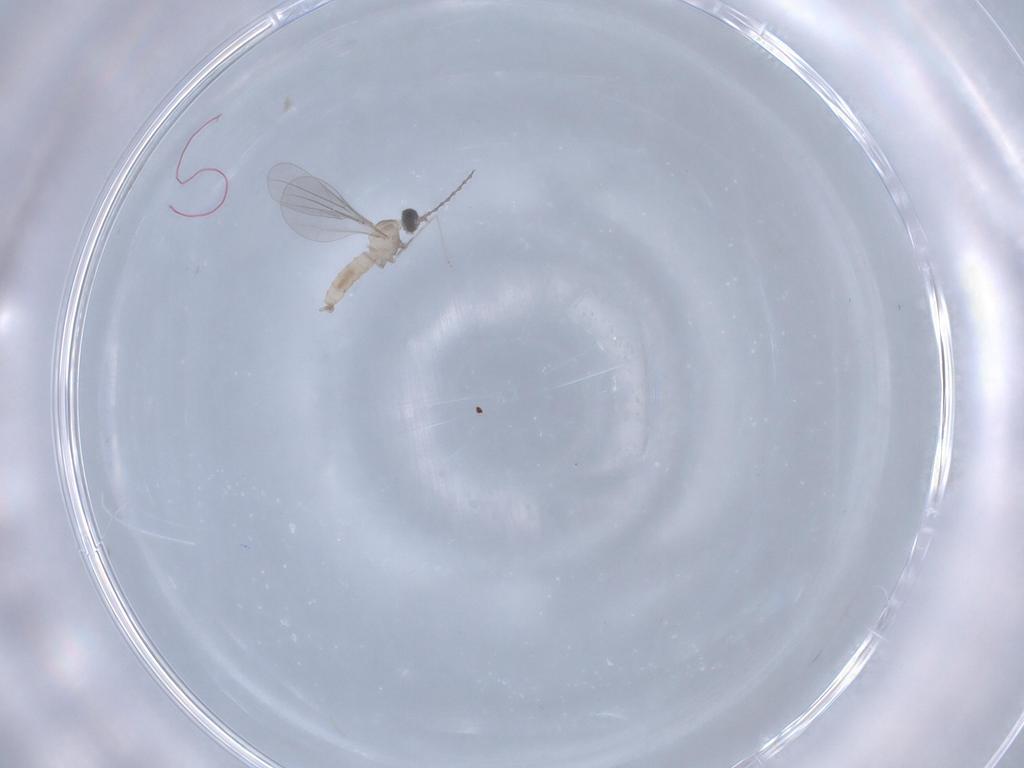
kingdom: Animalia
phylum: Arthropoda
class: Insecta
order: Diptera
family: Cecidomyiidae
